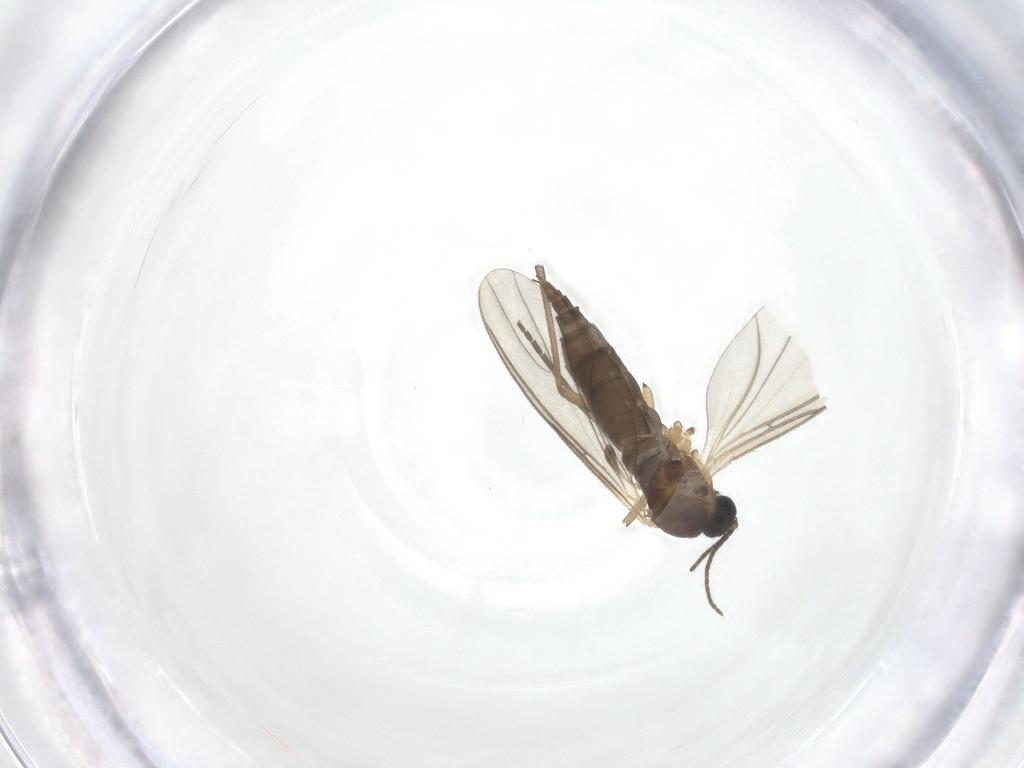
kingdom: Animalia
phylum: Arthropoda
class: Insecta
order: Diptera
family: Sciaridae
